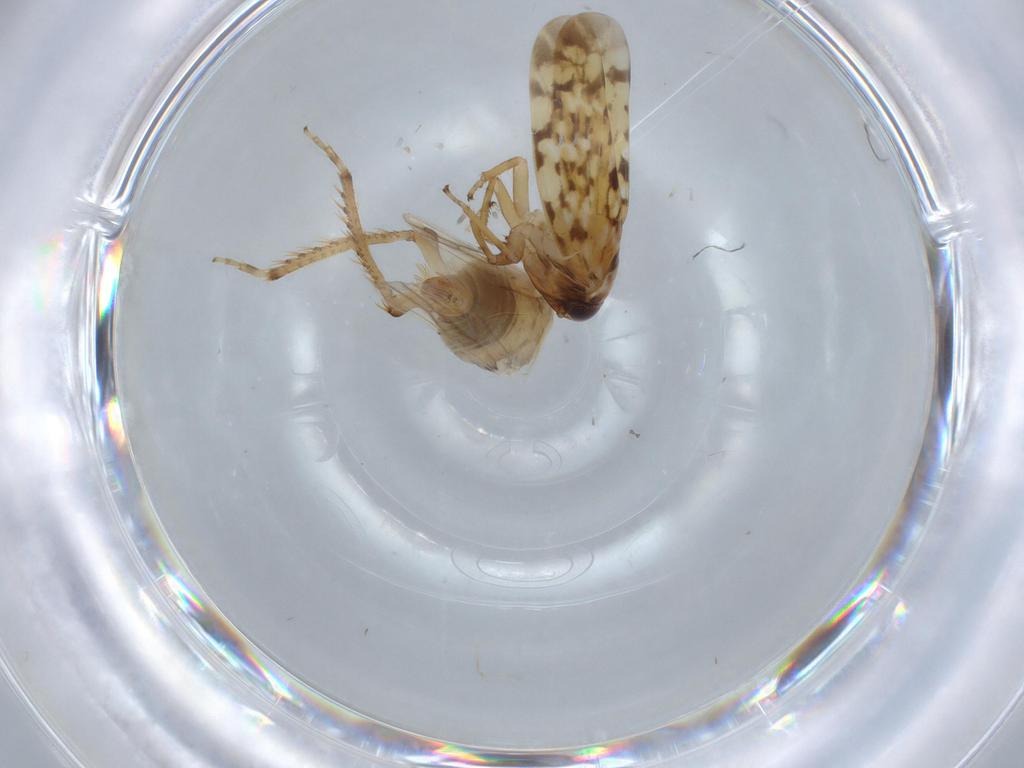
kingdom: Animalia
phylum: Arthropoda
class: Insecta
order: Hemiptera
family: Cicadellidae
